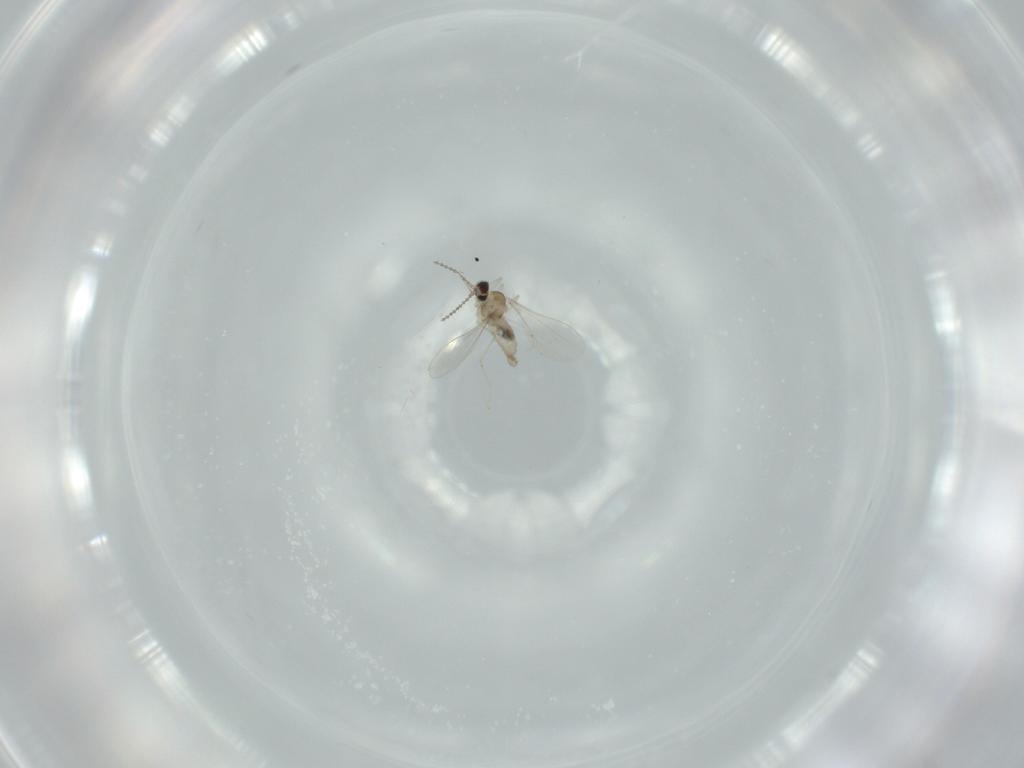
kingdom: Animalia
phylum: Arthropoda
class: Insecta
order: Diptera
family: Cecidomyiidae
